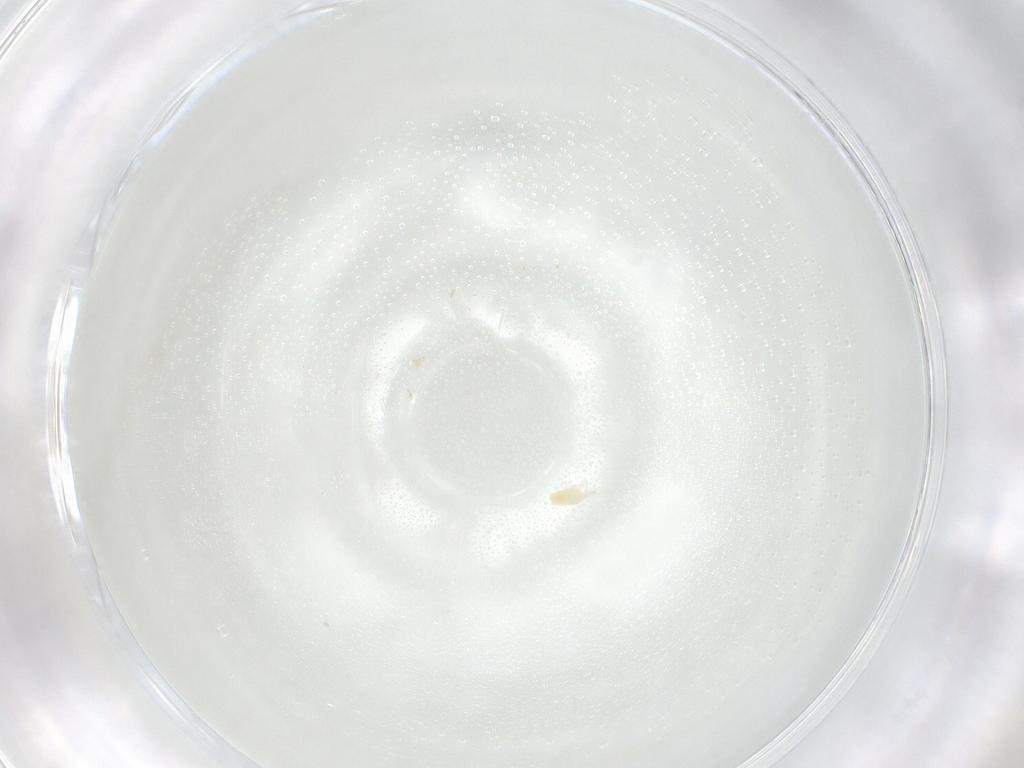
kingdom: Animalia
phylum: Arthropoda
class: Arachnida
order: Trombidiformes
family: Eupodidae
